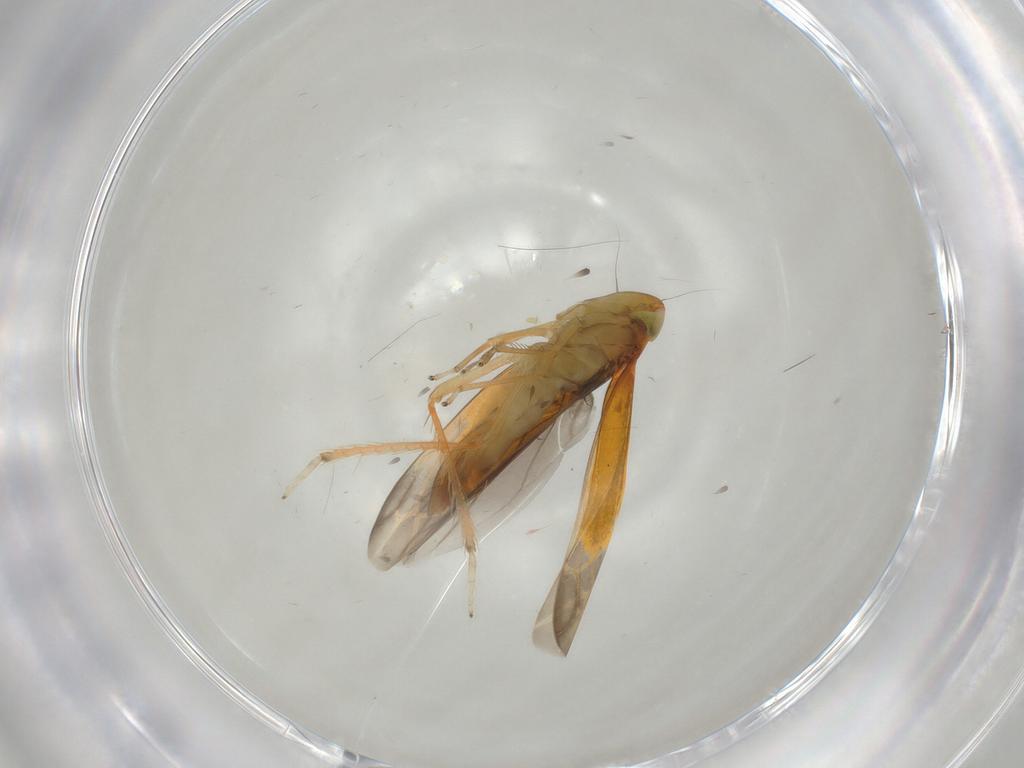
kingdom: Animalia
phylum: Arthropoda
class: Insecta
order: Hemiptera
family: Cicadellidae
